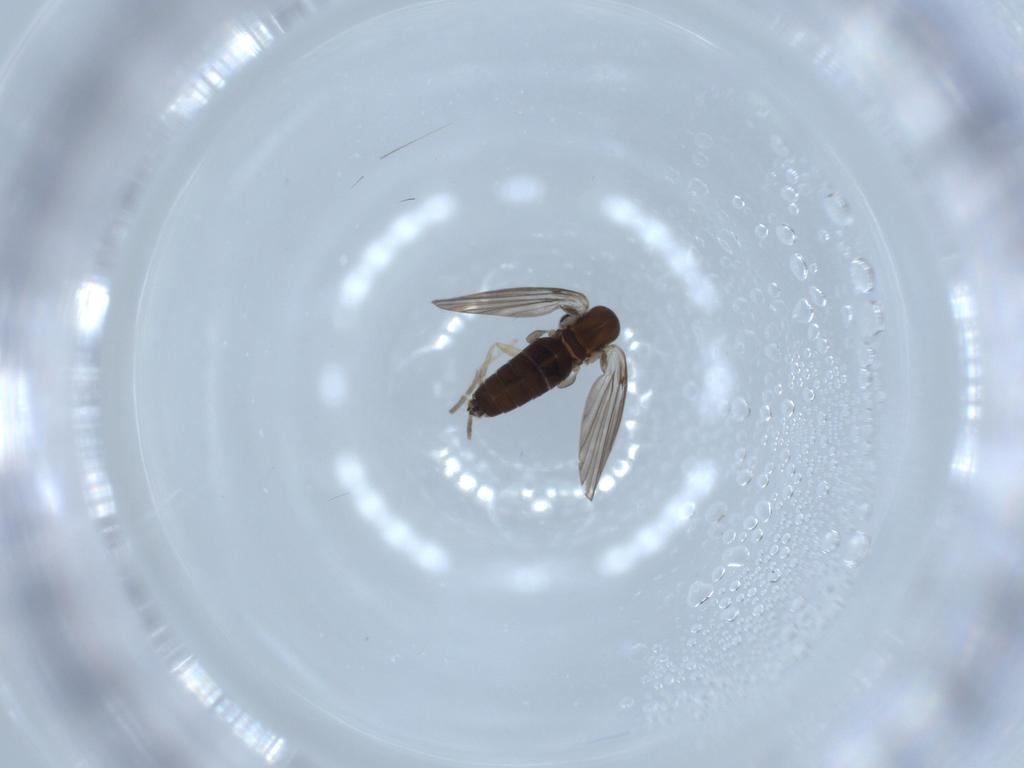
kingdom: Animalia
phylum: Arthropoda
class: Insecta
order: Diptera
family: Chironomidae
